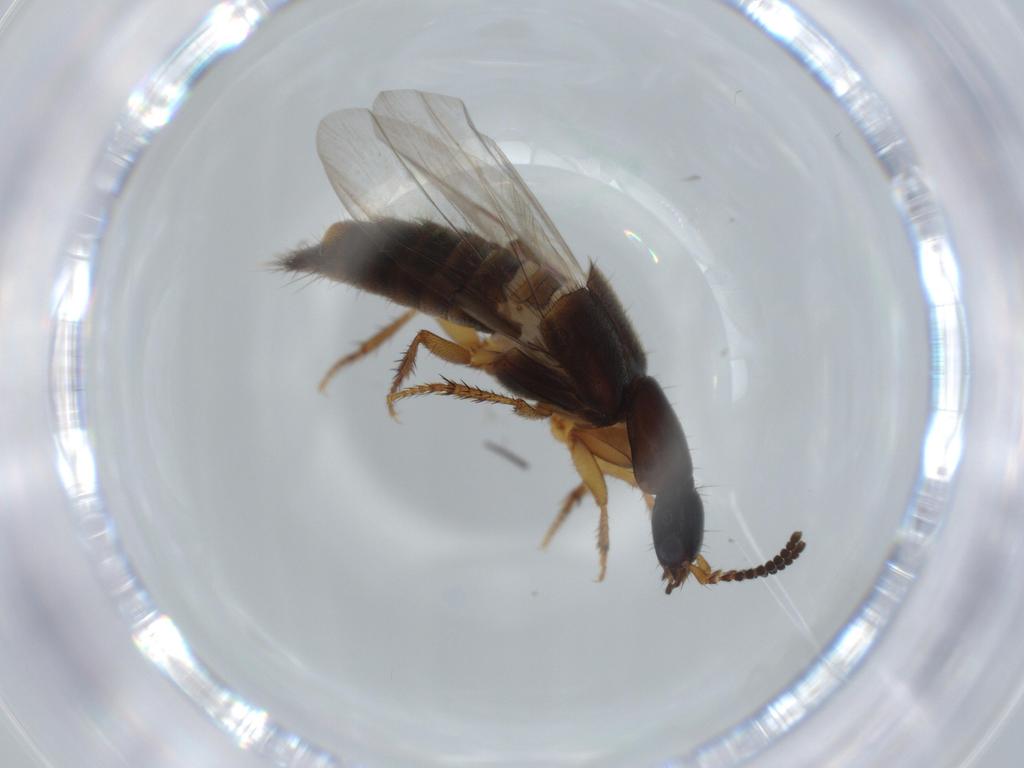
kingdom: Animalia
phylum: Arthropoda
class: Insecta
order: Coleoptera
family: Staphylinidae
